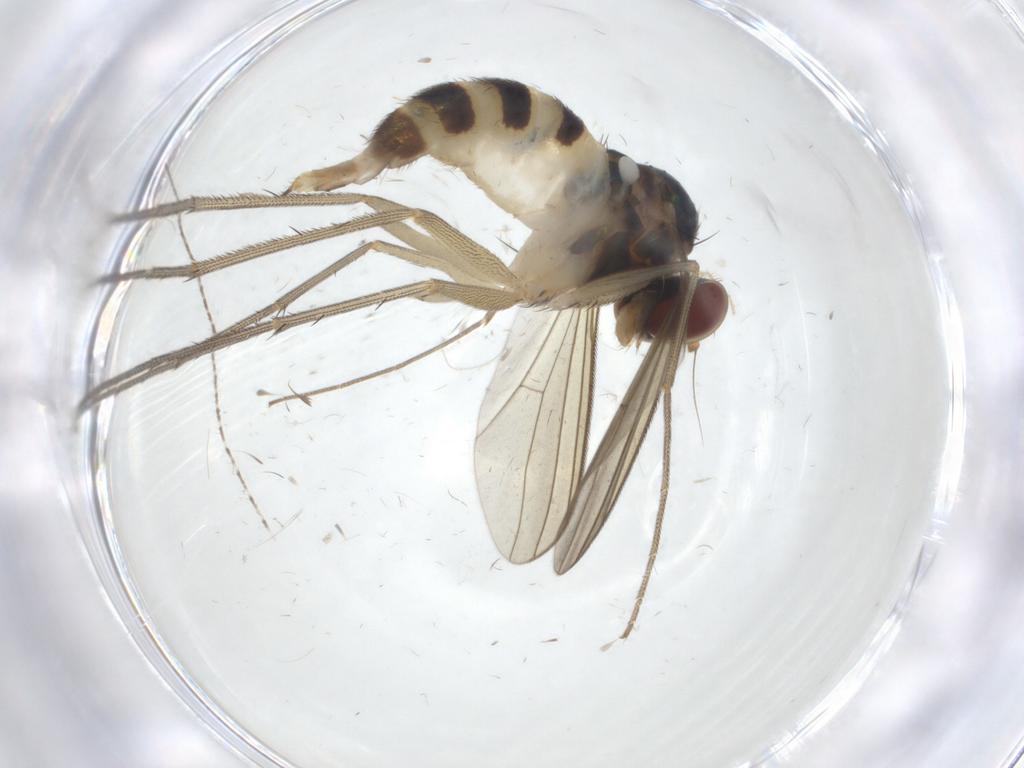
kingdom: Animalia
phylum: Arthropoda
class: Insecta
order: Diptera
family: Dolichopodidae
